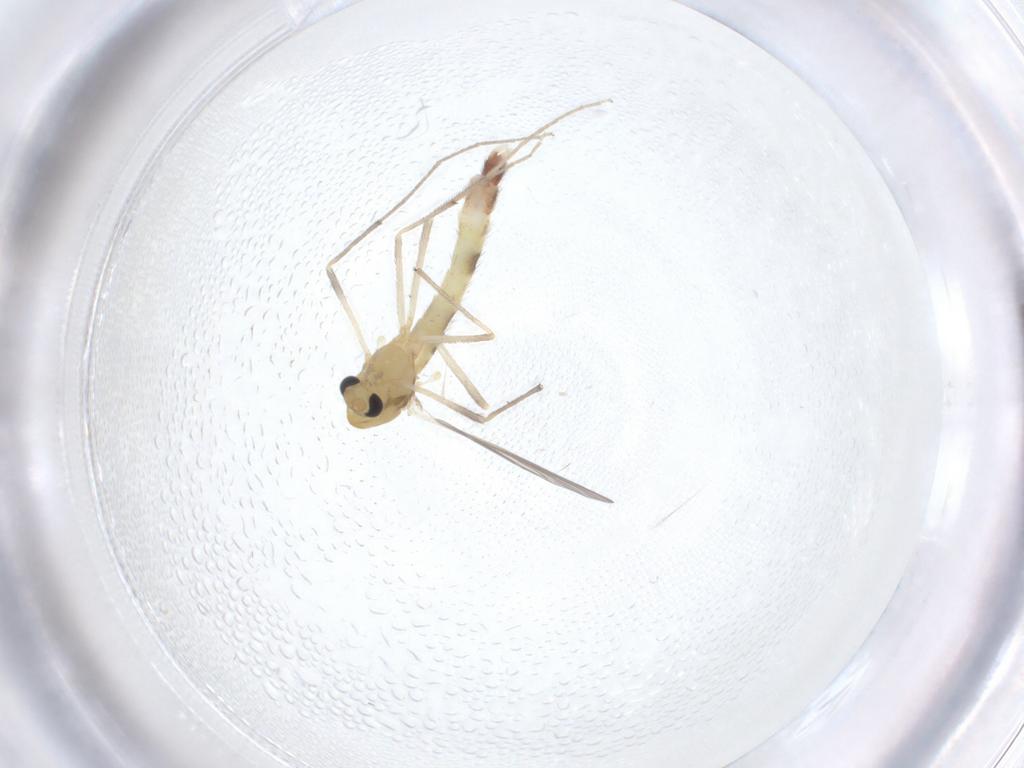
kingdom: Animalia
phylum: Arthropoda
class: Insecta
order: Diptera
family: Chironomidae
